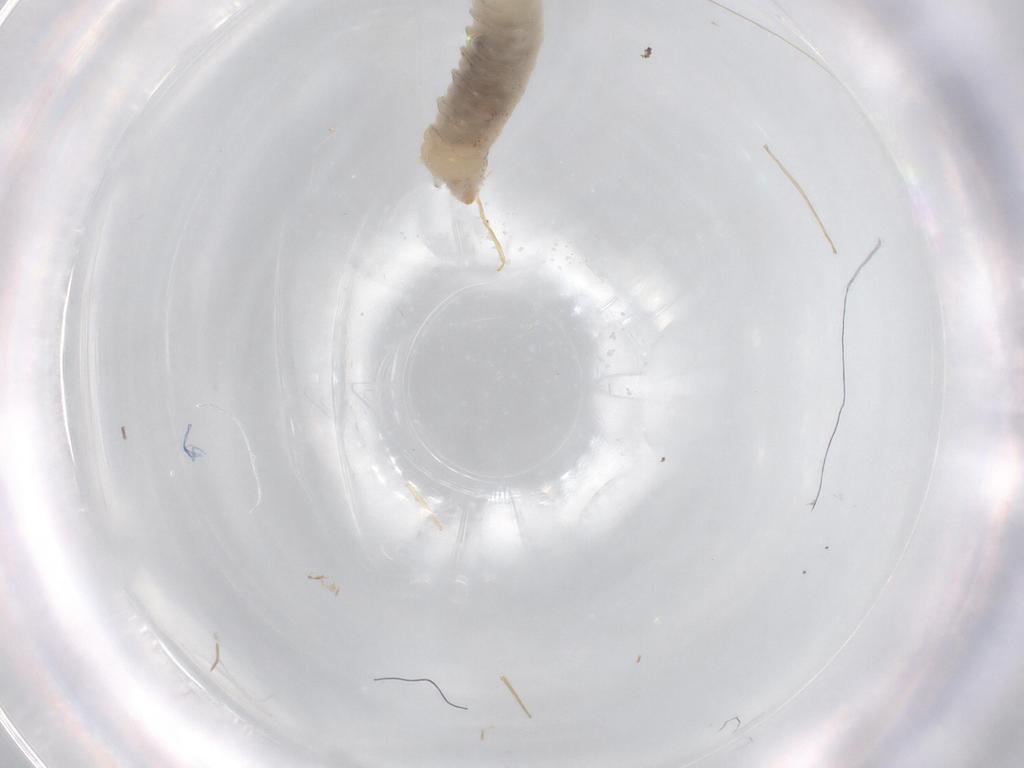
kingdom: Animalia
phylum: Arthropoda
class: Insecta
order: Diptera
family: Drosophilidae
